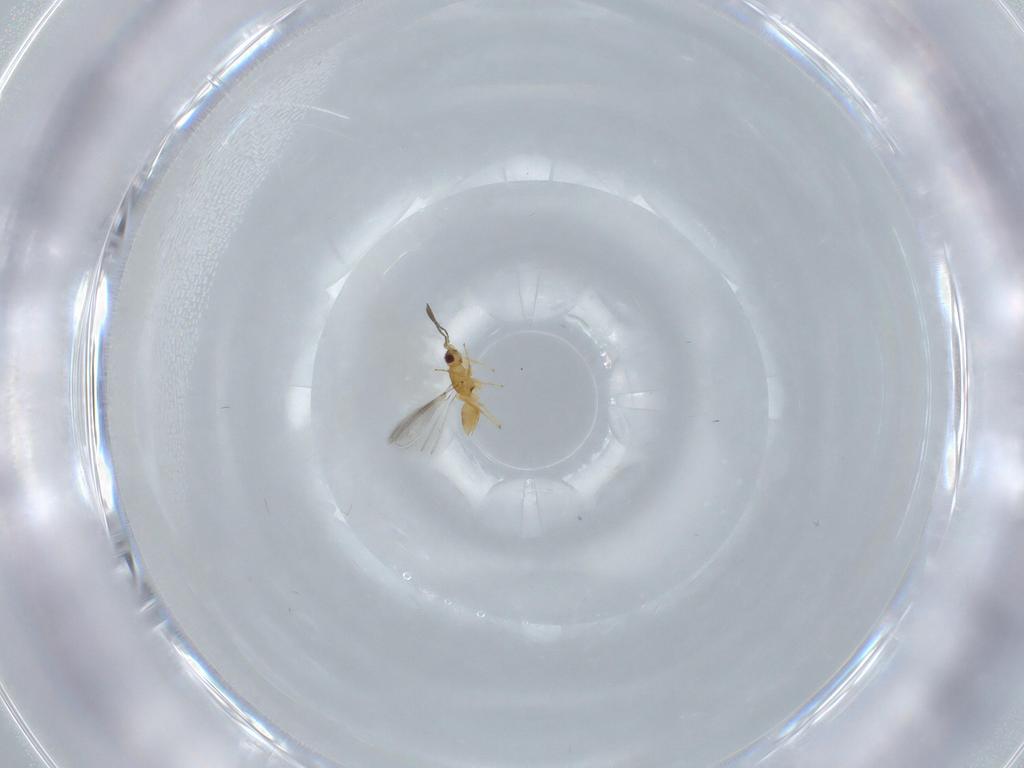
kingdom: Animalia
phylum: Arthropoda
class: Insecta
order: Hymenoptera
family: Mymaridae
